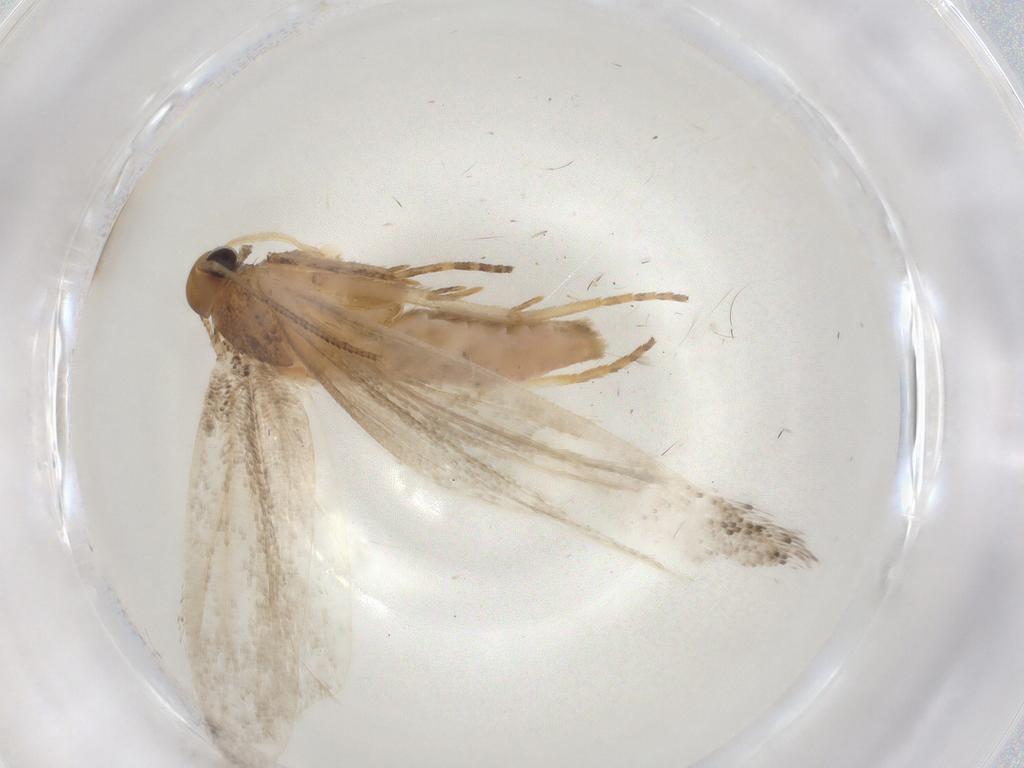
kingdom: Animalia
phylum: Arthropoda
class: Insecta
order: Lepidoptera
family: Gelechiidae
